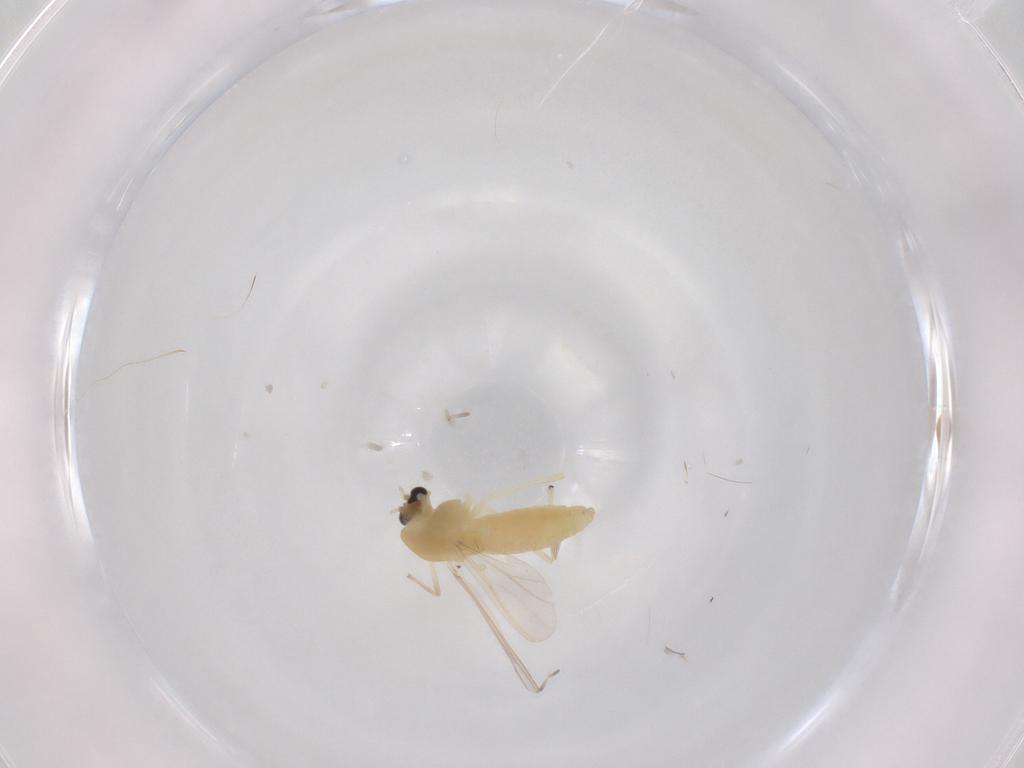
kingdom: Animalia
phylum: Arthropoda
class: Insecta
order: Diptera
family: Chironomidae
